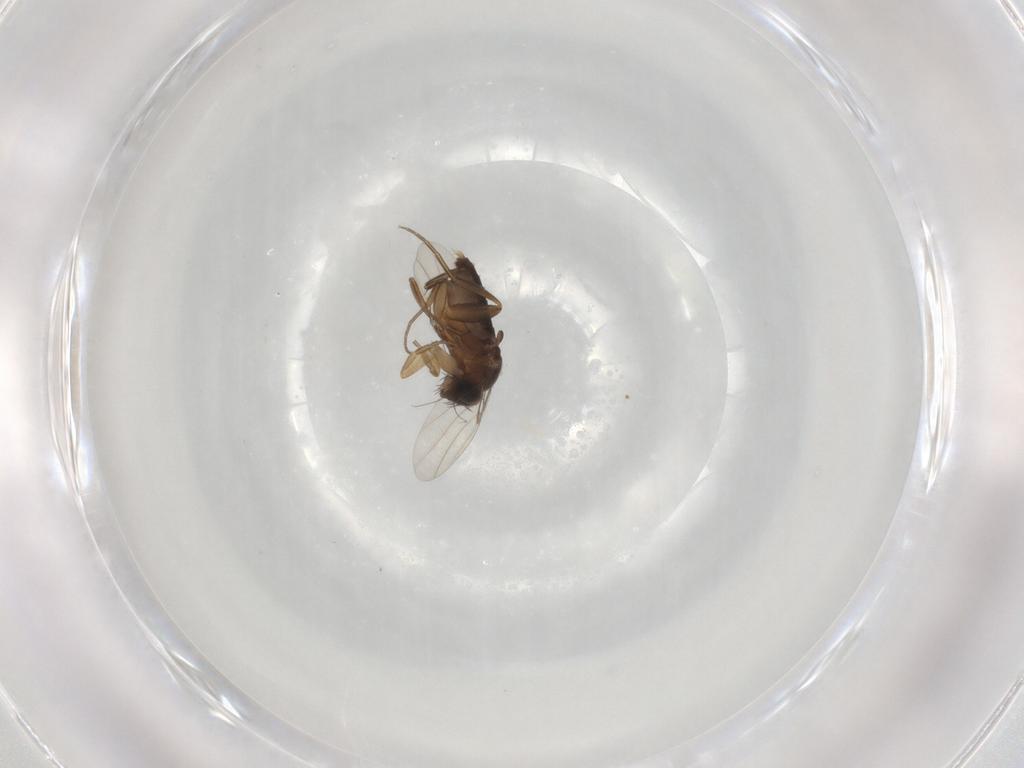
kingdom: Animalia
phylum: Arthropoda
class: Insecta
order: Diptera
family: Phoridae
